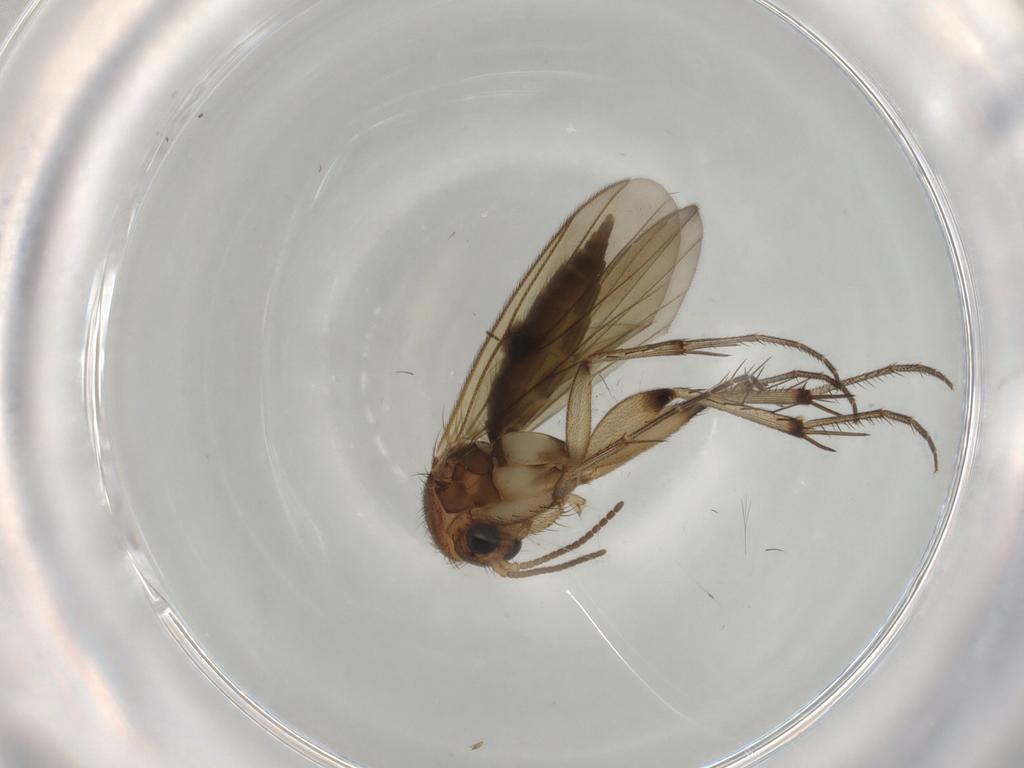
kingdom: Animalia
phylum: Arthropoda
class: Insecta
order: Diptera
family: Mycetophilidae
